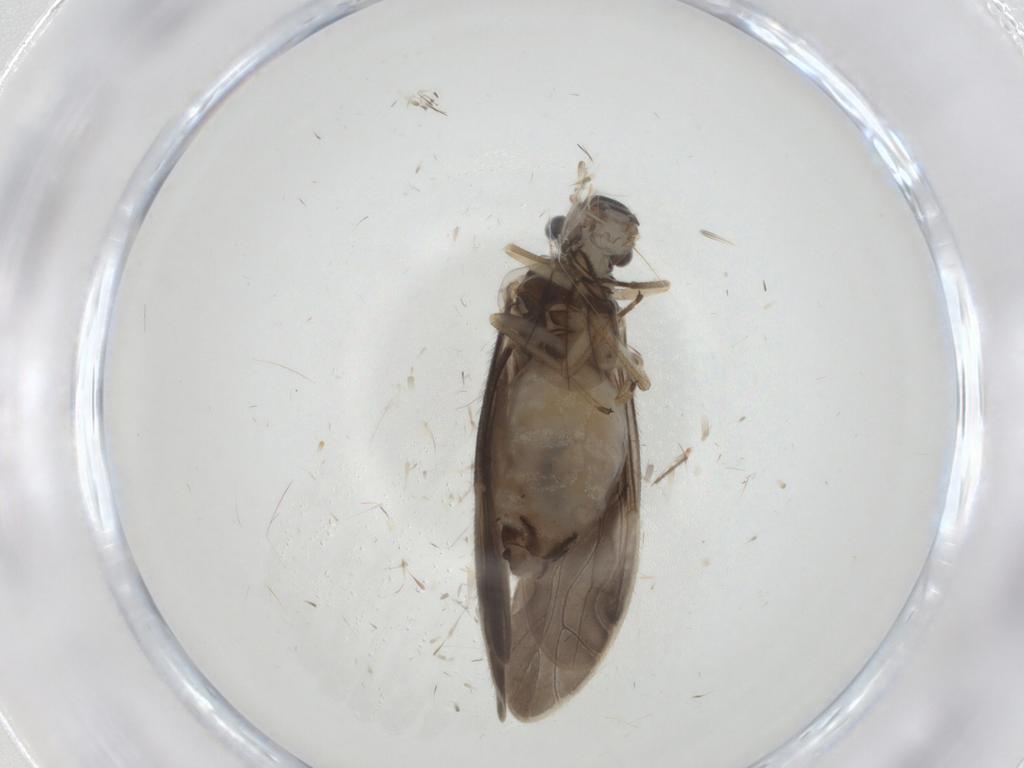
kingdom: Animalia
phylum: Arthropoda
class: Insecta
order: Psocodea
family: Caeciliusidae
